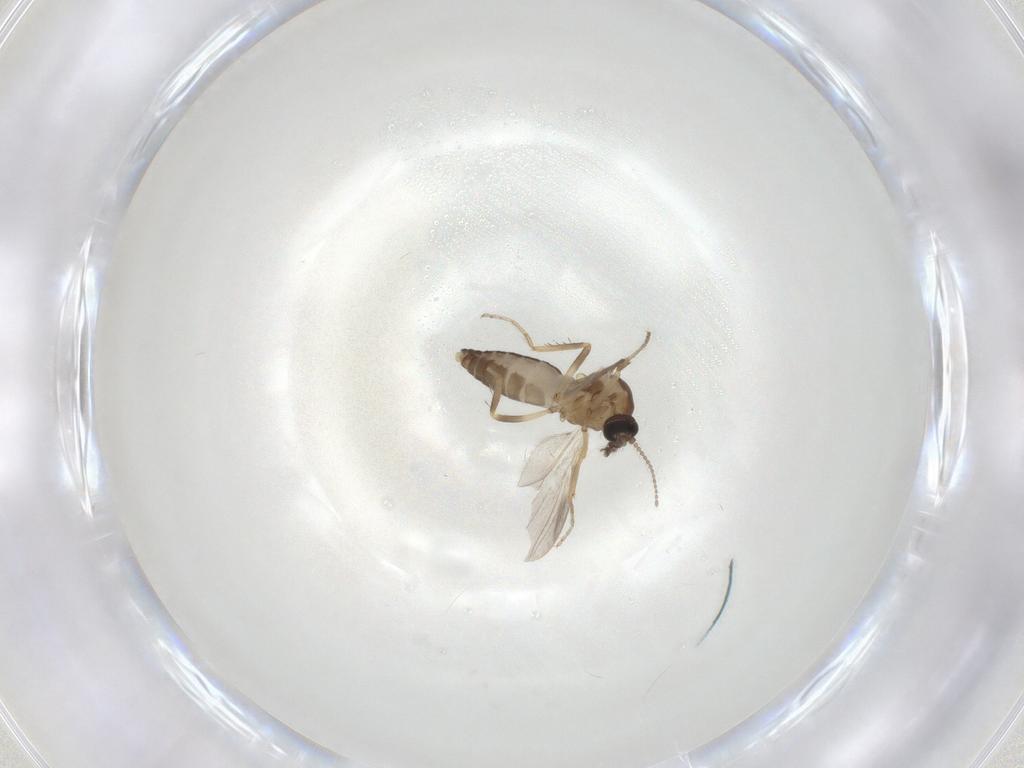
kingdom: Animalia
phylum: Arthropoda
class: Insecta
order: Diptera
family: Ceratopogonidae
